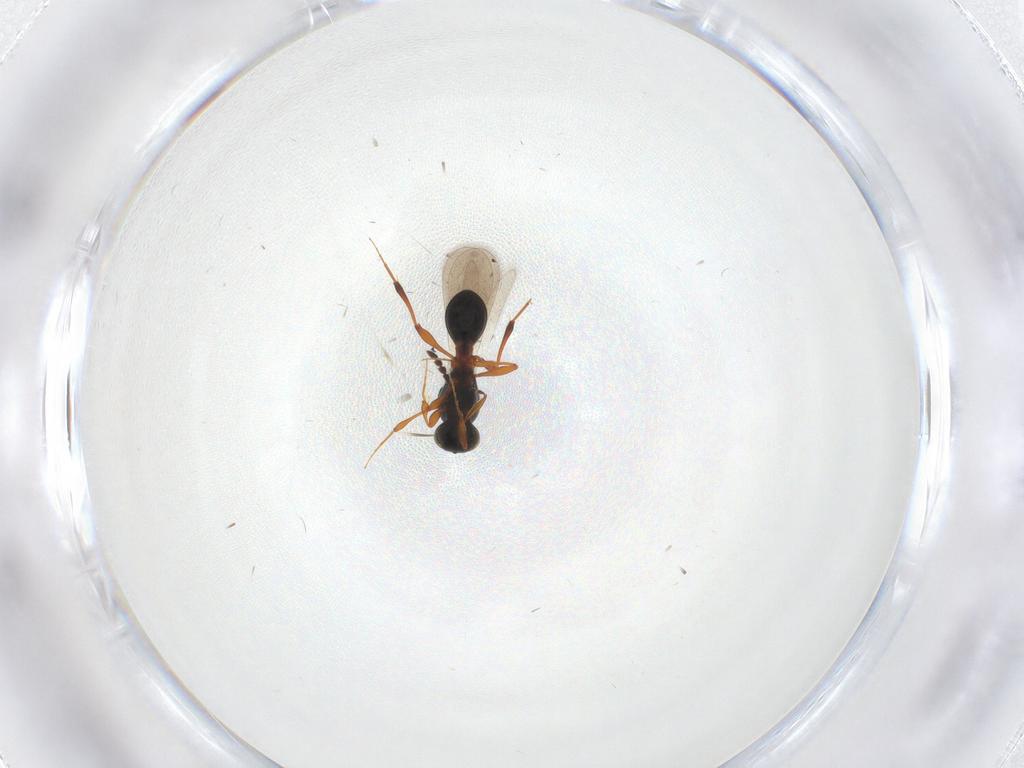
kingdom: Animalia
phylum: Arthropoda
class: Insecta
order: Hymenoptera
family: Platygastridae
